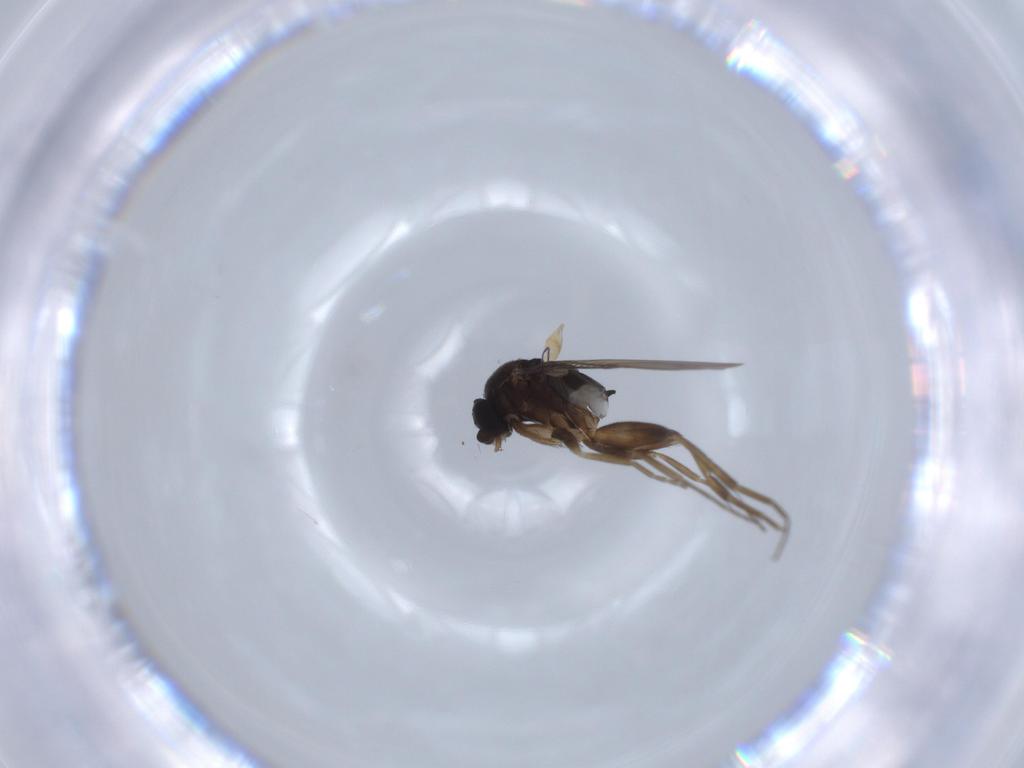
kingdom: Animalia
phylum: Arthropoda
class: Insecta
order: Diptera
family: Phoridae
